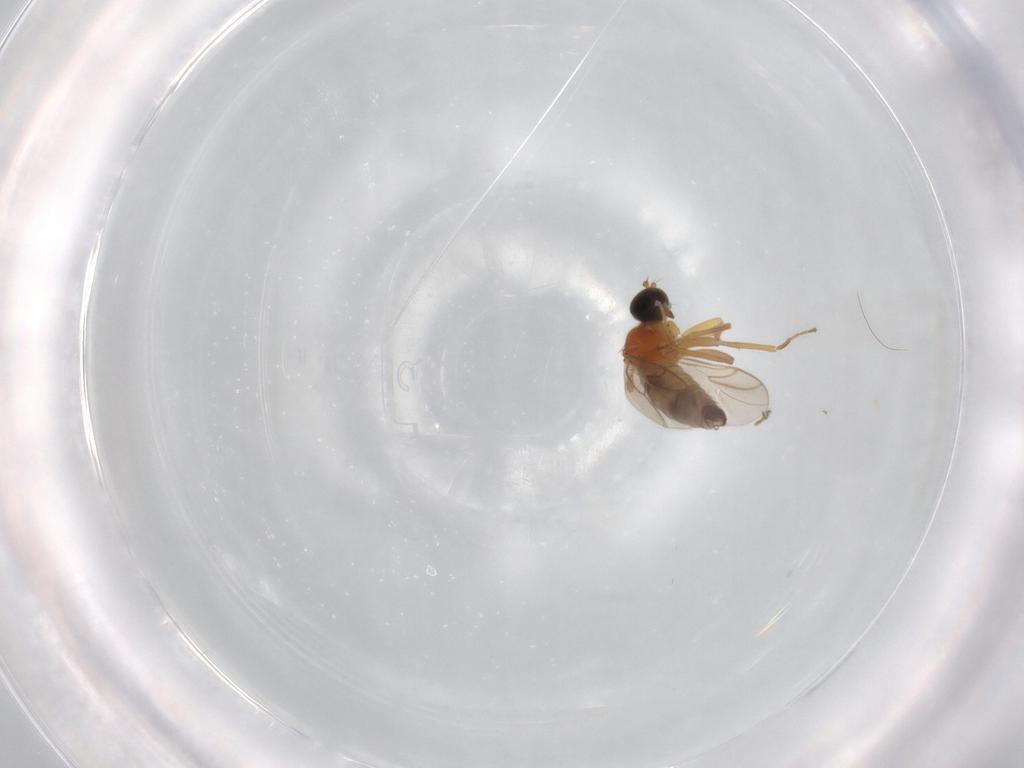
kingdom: Animalia
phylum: Arthropoda
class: Insecta
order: Diptera
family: Hybotidae
